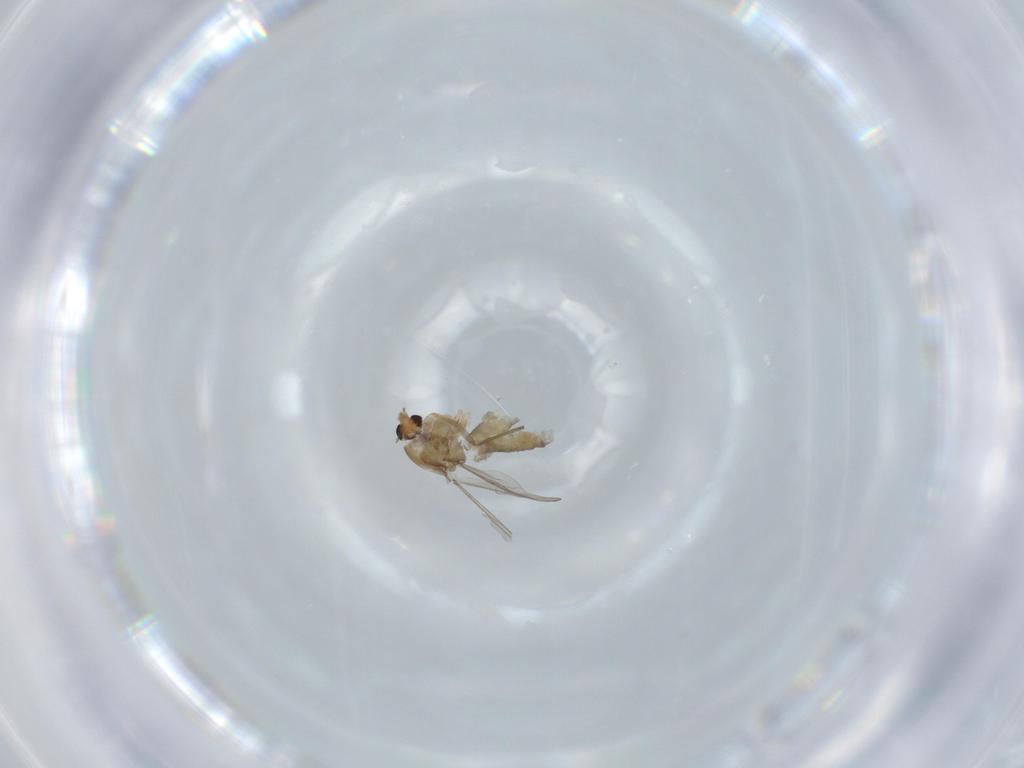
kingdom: Animalia
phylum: Arthropoda
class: Insecta
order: Diptera
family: Chironomidae
